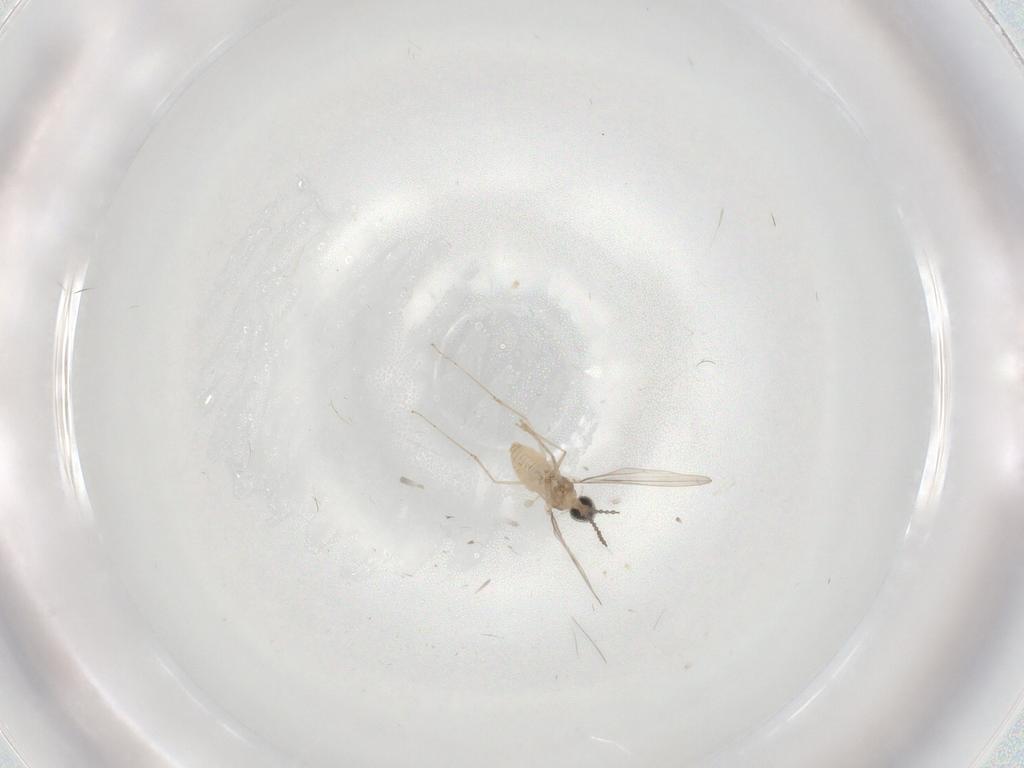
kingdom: Animalia
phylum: Arthropoda
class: Insecta
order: Diptera
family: Cecidomyiidae
